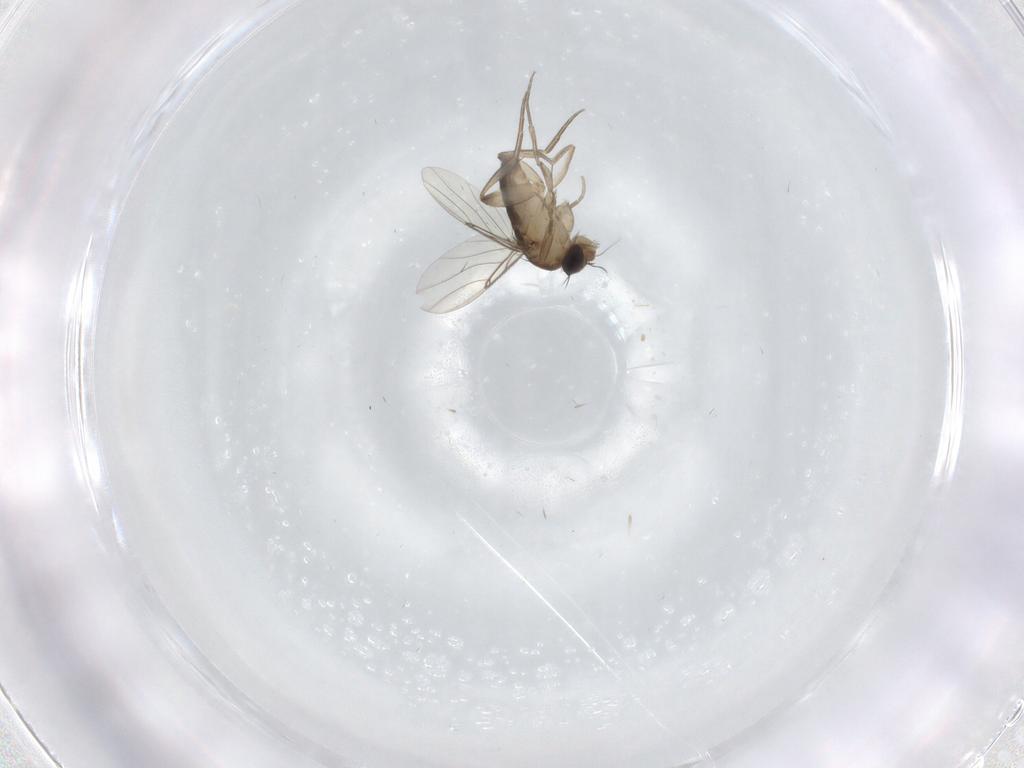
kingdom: Animalia
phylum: Arthropoda
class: Insecta
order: Diptera
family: Phoridae
